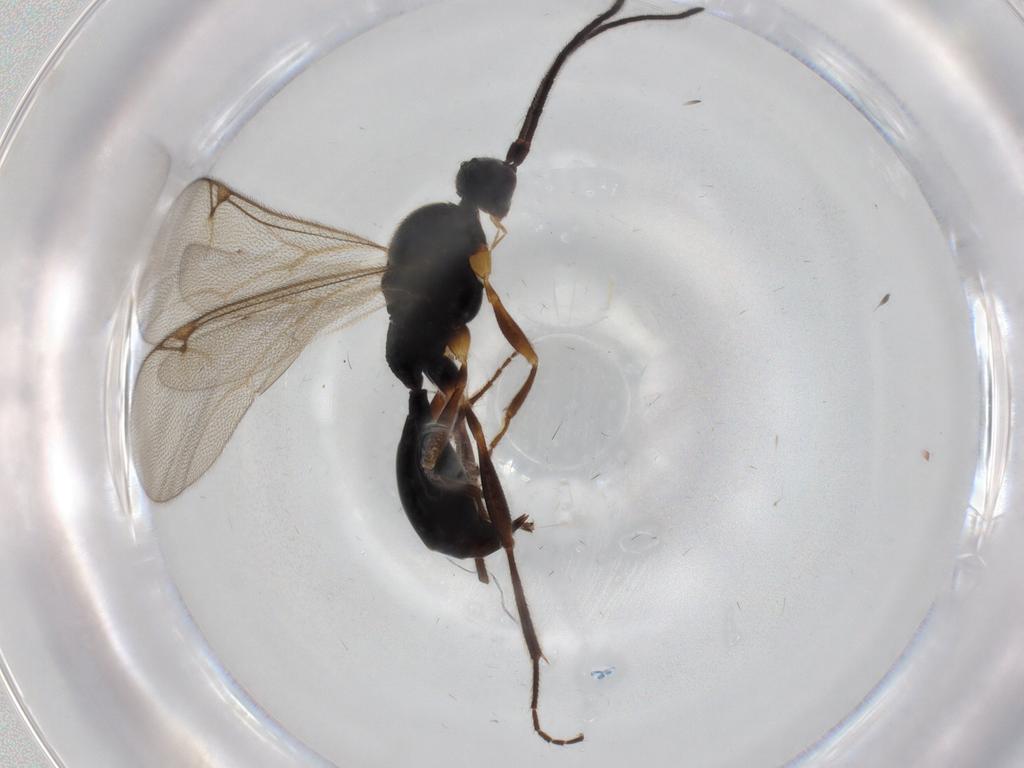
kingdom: Animalia
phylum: Arthropoda
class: Insecta
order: Hymenoptera
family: Proctotrupidae
